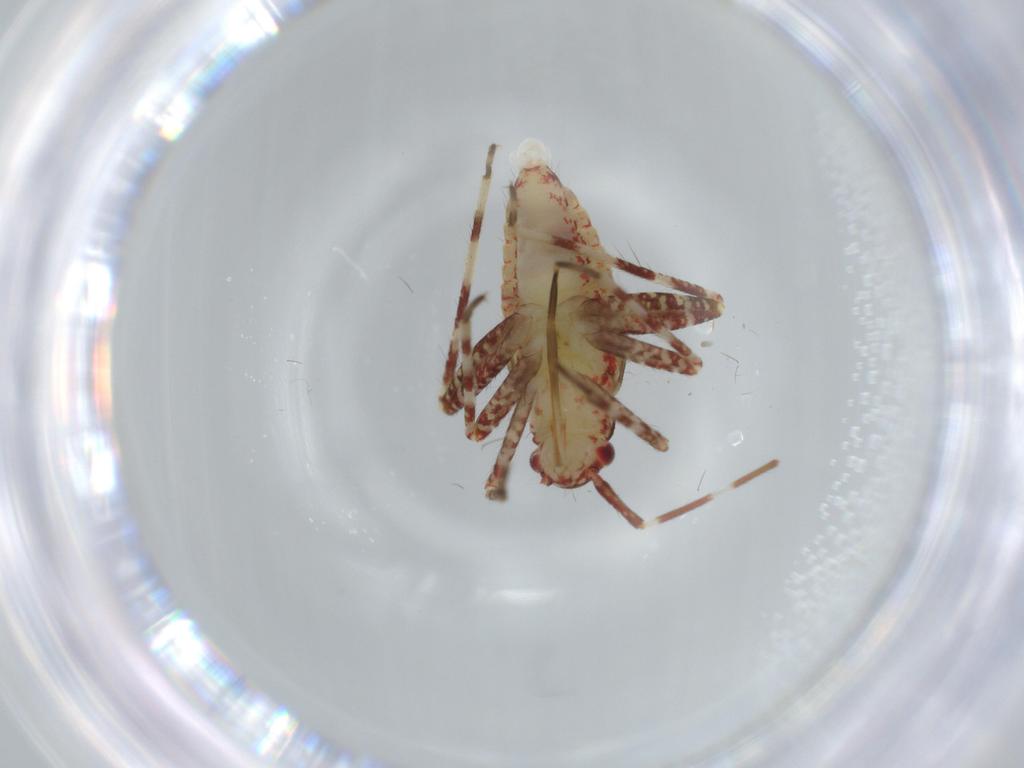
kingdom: Animalia
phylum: Arthropoda
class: Insecta
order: Hemiptera
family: Miridae
